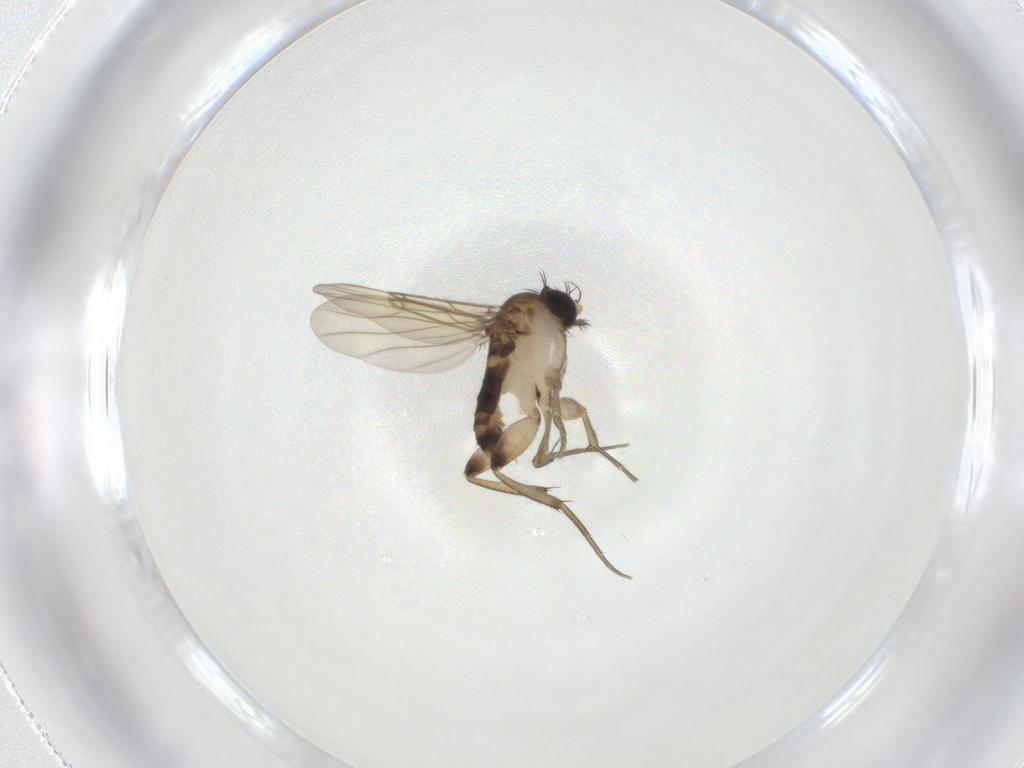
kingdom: Animalia
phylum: Arthropoda
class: Insecta
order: Diptera
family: Phoridae
